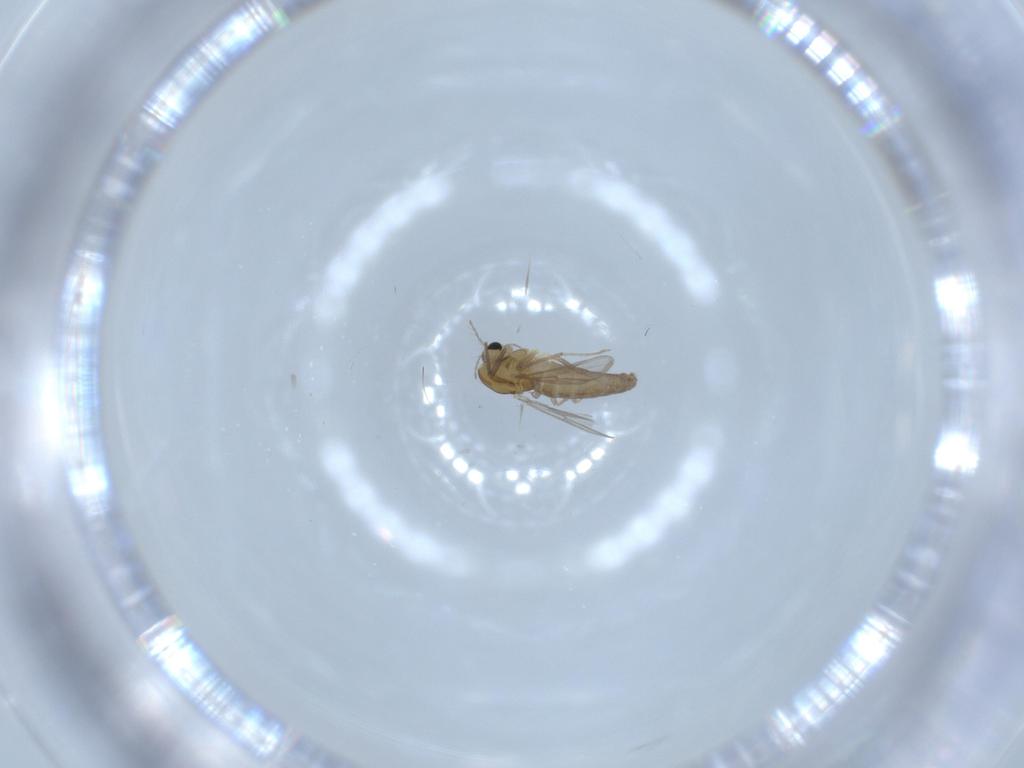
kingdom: Animalia
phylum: Arthropoda
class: Insecta
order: Diptera
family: Chironomidae
